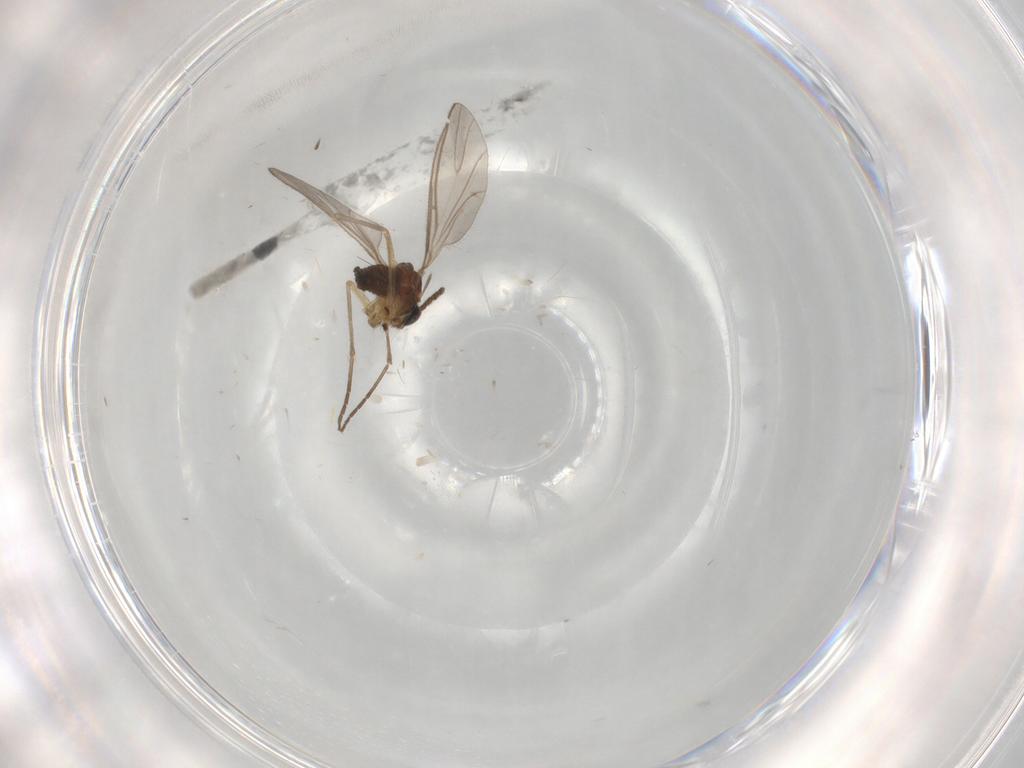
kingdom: Animalia
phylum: Arthropoda
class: Insecta
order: Diptera
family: Sciaridae
